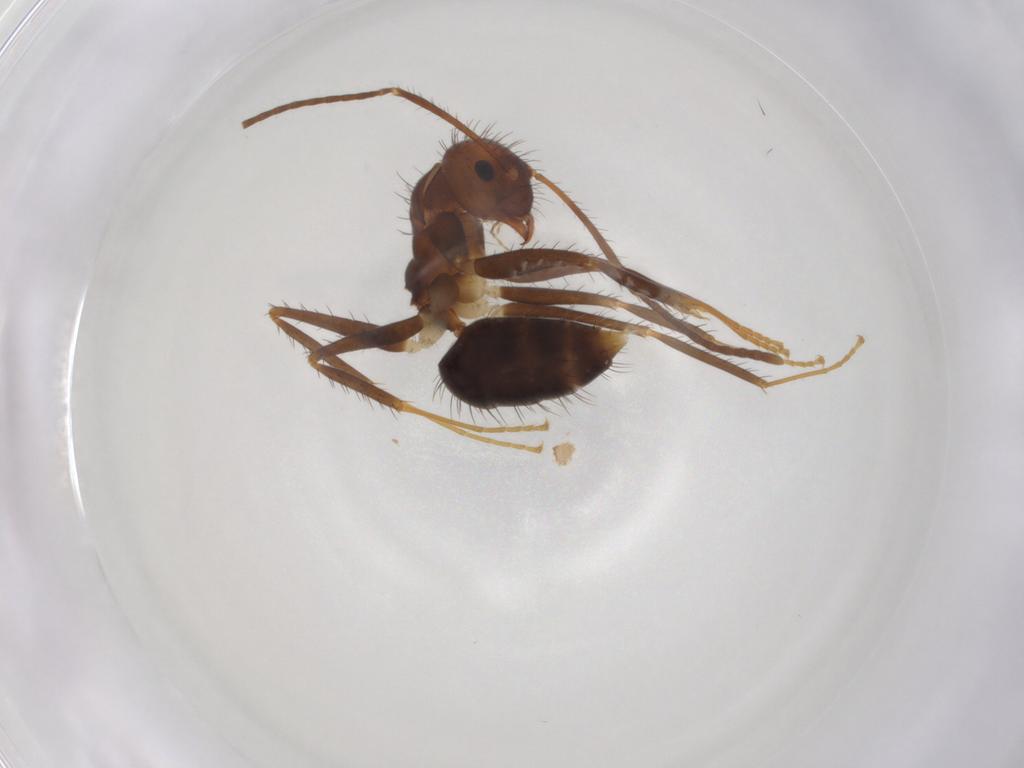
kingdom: Animalia
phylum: Arthropoda
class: Insecta
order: Hymenoptera
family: Formicidae
